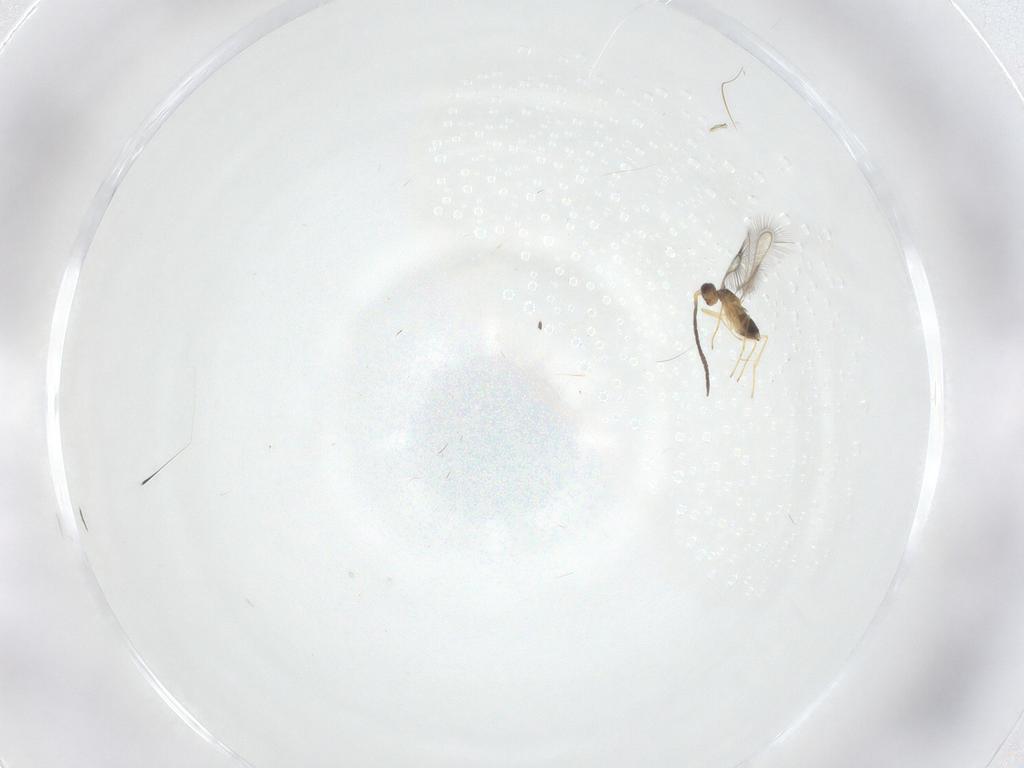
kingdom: Animalia
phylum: Arthropoda
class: Insecta
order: Hymenoptera
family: Mymaridae
